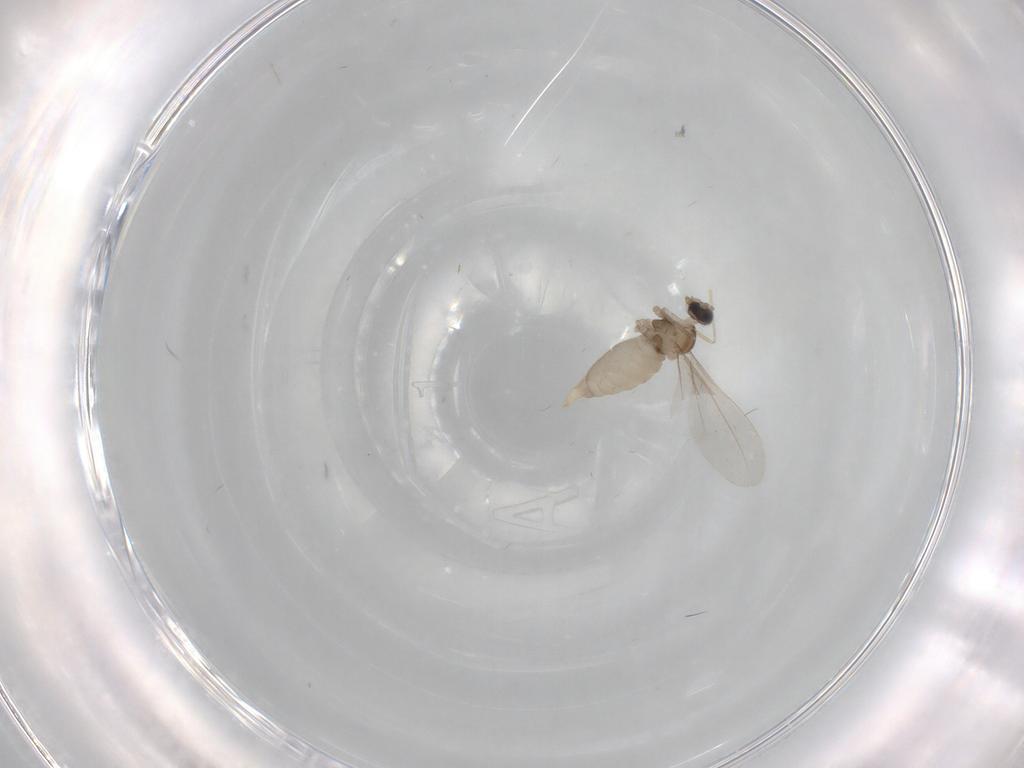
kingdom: Animalia
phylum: Arthropoda
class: Insecta
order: Diptera
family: Cecidomyiidae
